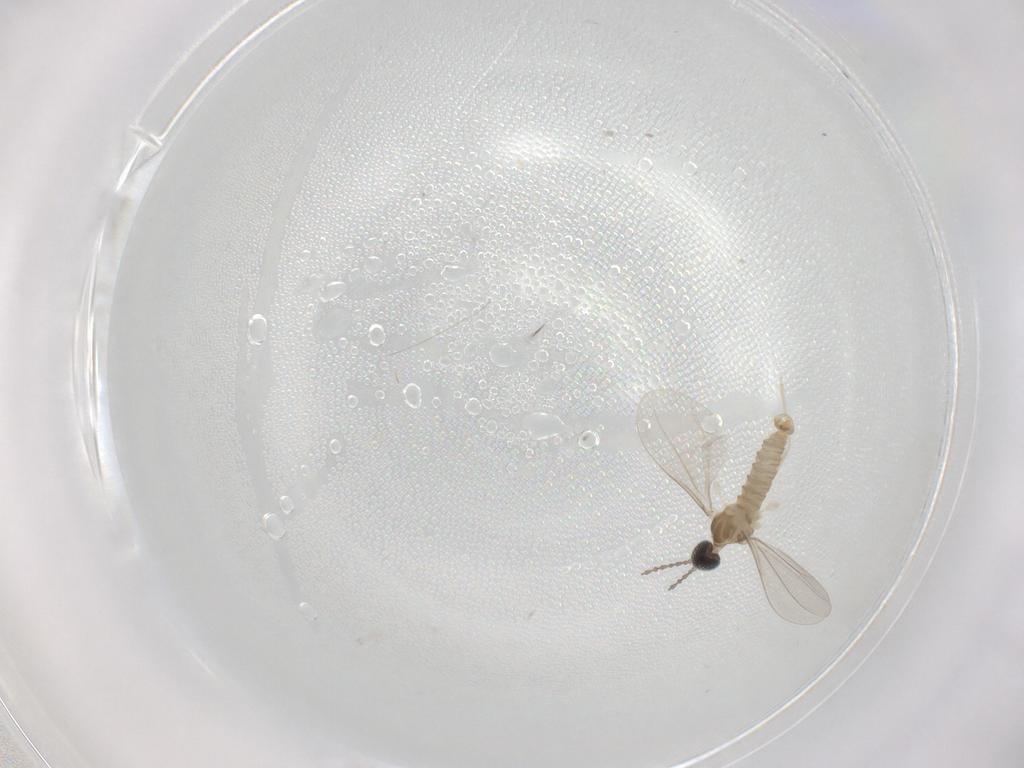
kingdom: Animalia
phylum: Arthropoda
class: Insecta
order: Diptera
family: Cecidomyiidae
